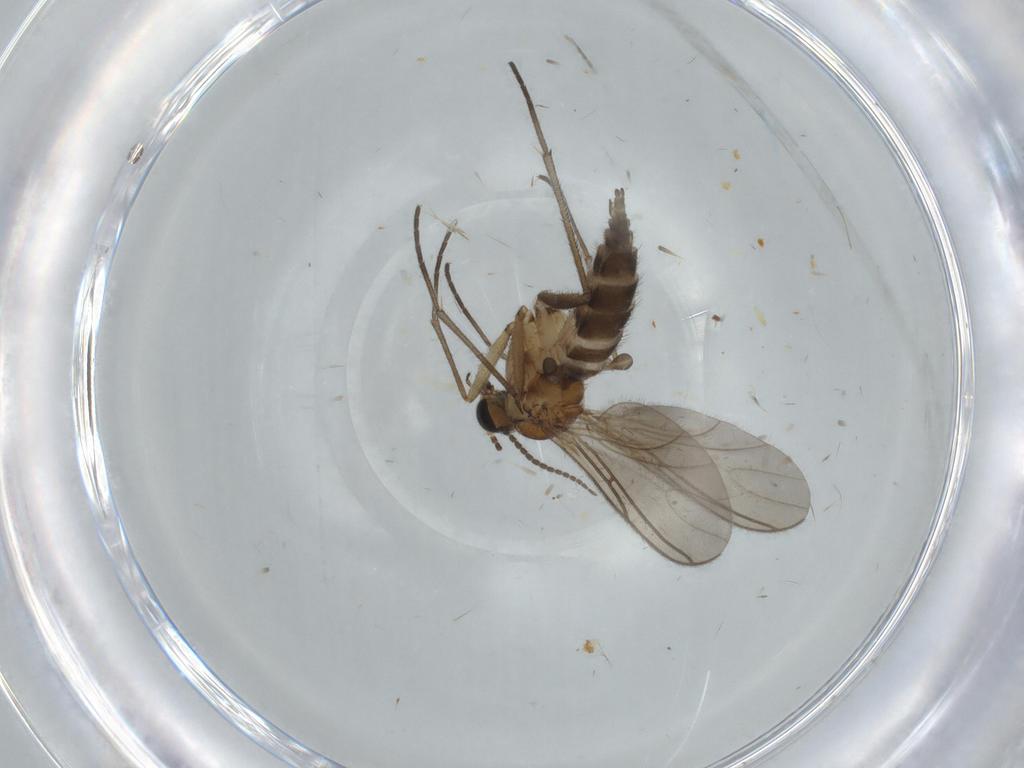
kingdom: Animalia
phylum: Arthropoda
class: Insecta
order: Diptera
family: Sciaridae
